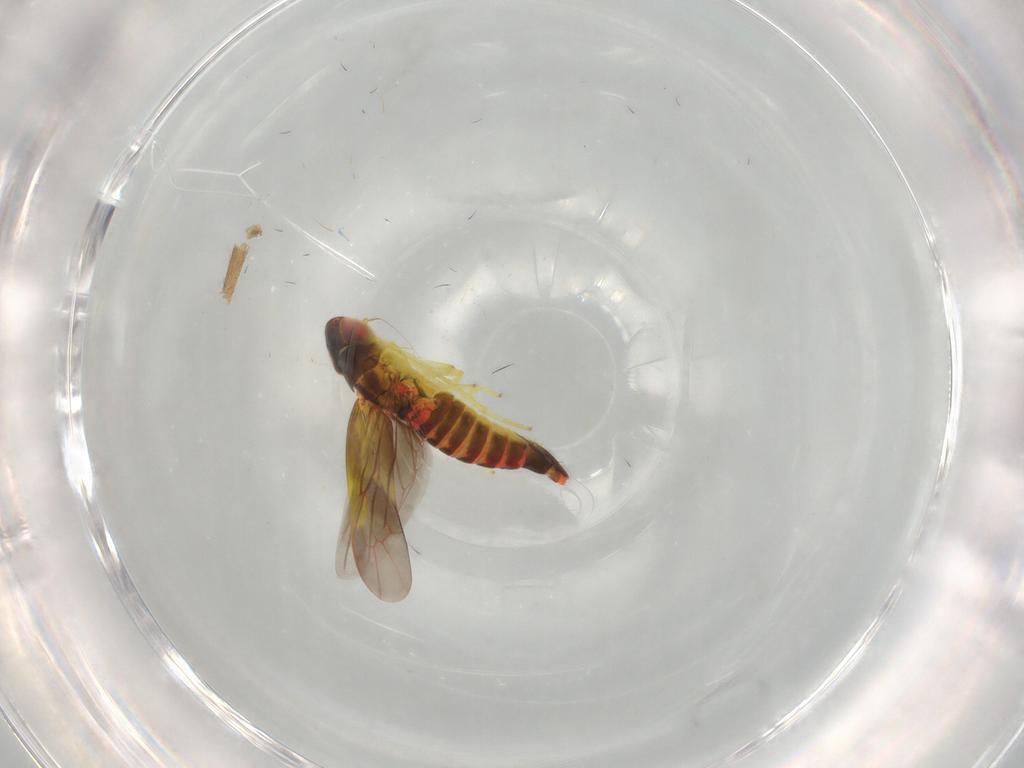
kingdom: Animalia
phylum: Arthropoda
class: Insecta
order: Hemiptera
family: Cicadellidae
